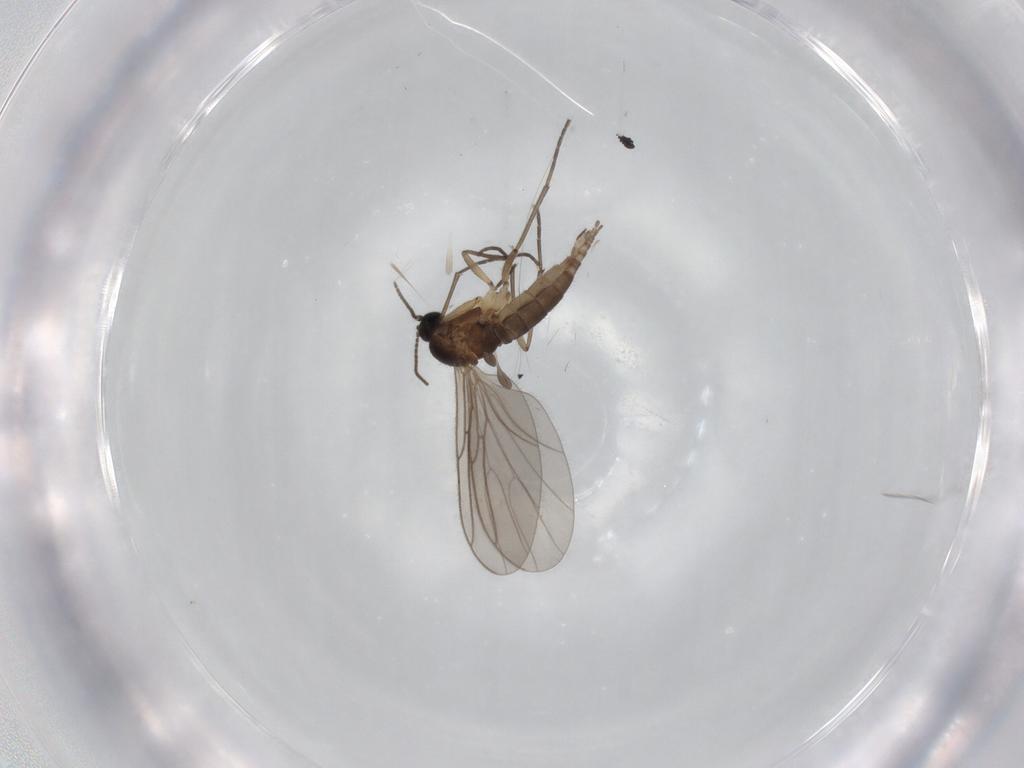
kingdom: Animalia
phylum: Arthropoda
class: Insecta
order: Diptera
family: Sciaridae
